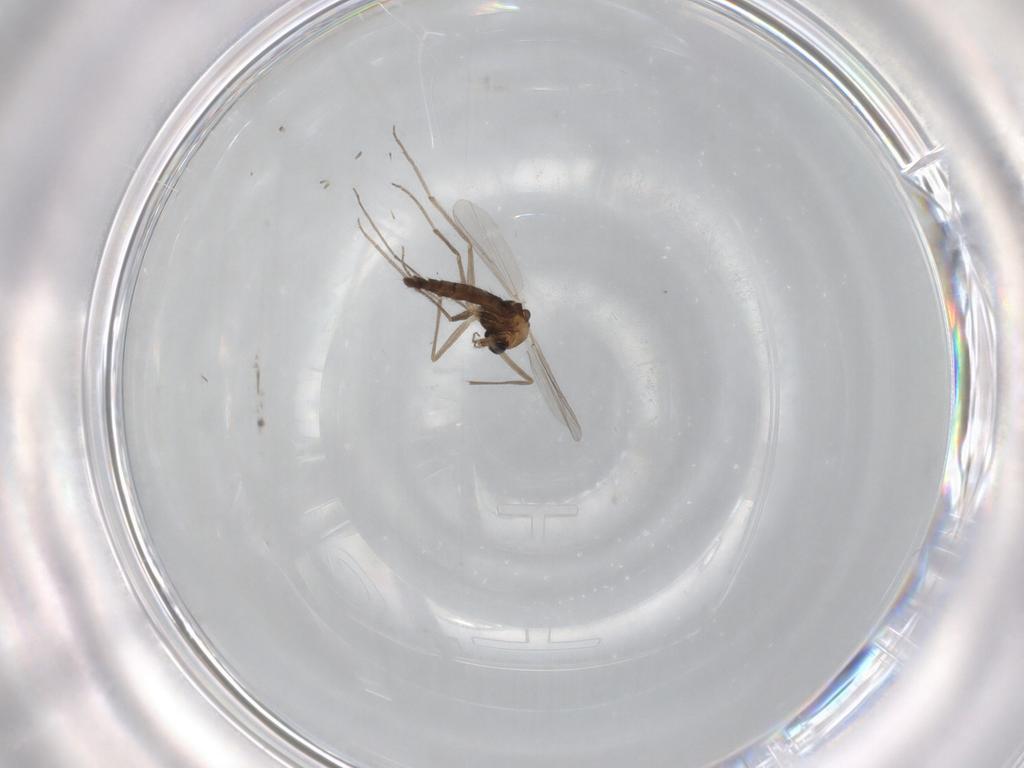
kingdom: Animalia
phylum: Arthropoda
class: Insecta
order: Diptera
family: Chironomidae
